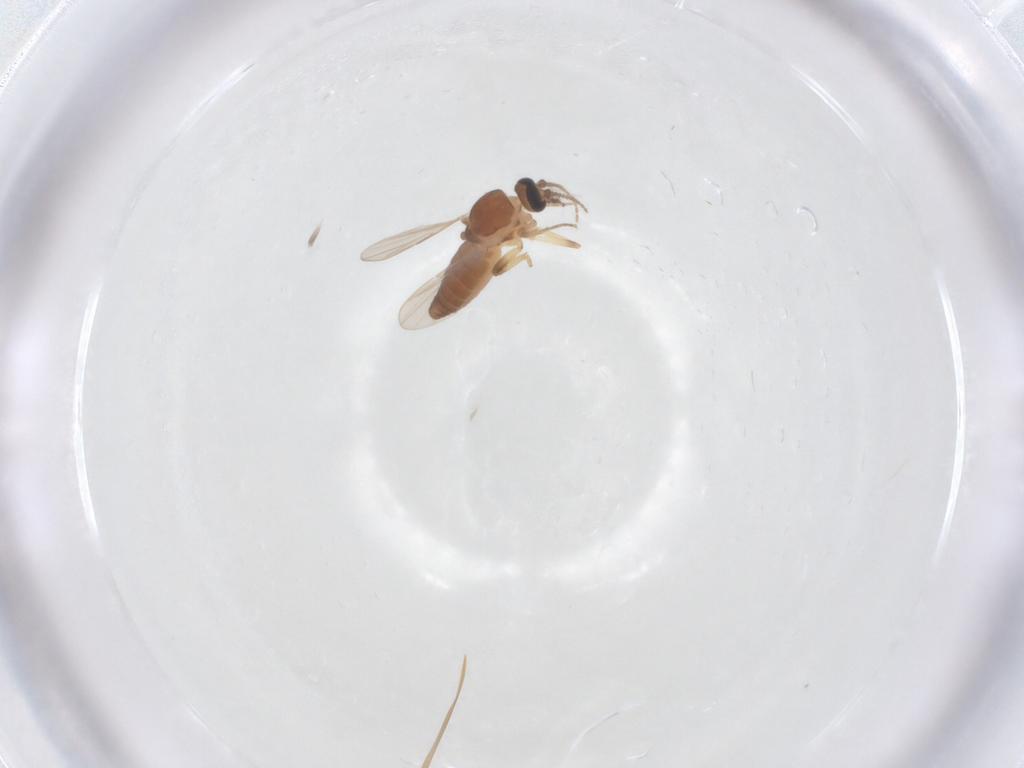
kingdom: Animalia
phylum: Arthropoda
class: Insecta
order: Diptera
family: Ceratopogonidae
